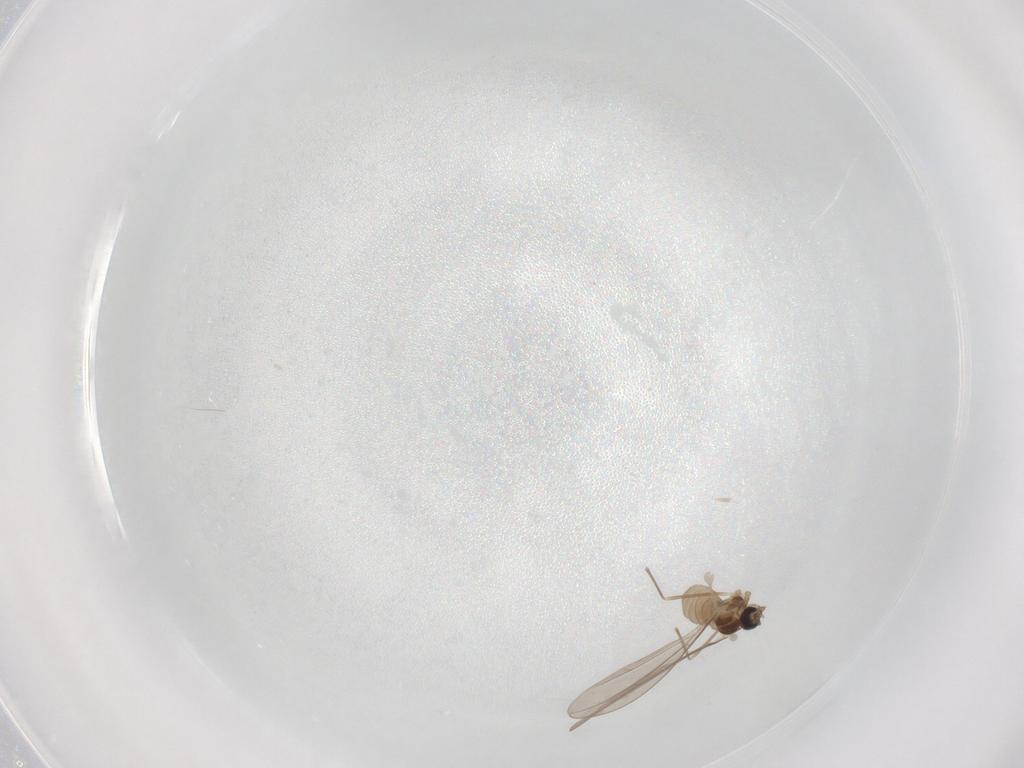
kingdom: Animalia
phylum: Arthropoda
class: Insecta
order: Diptera
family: Cecidomyiidae
